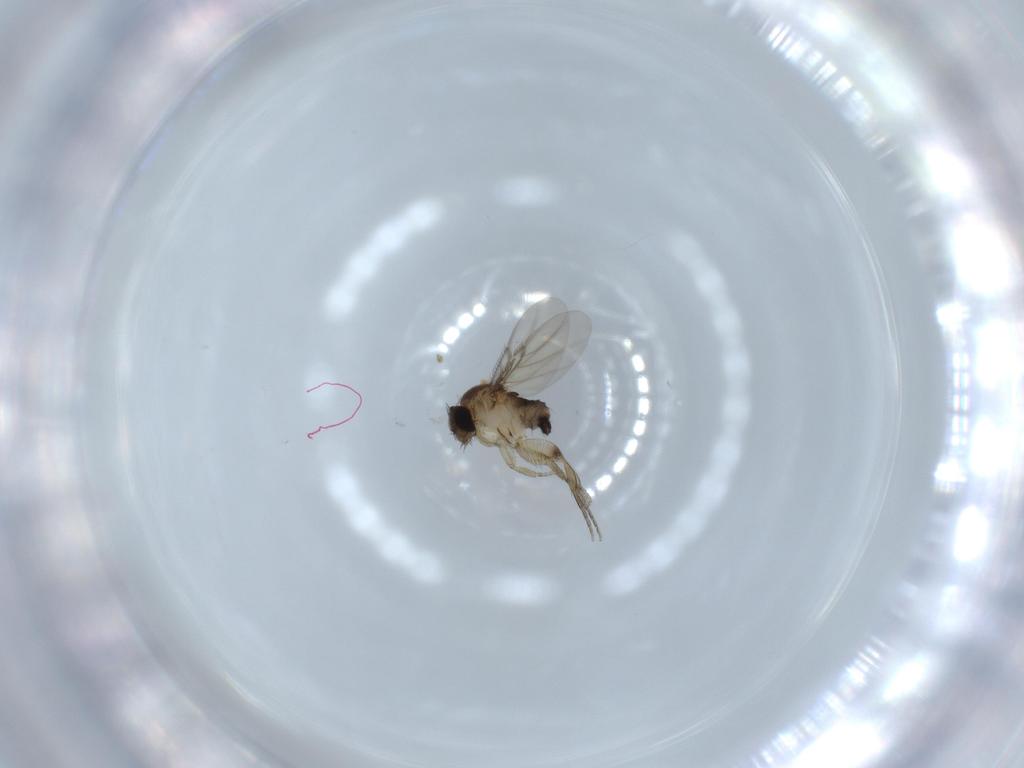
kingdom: Animalia
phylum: Arthropoda
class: Insecta
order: Diptera
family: Phoridae
